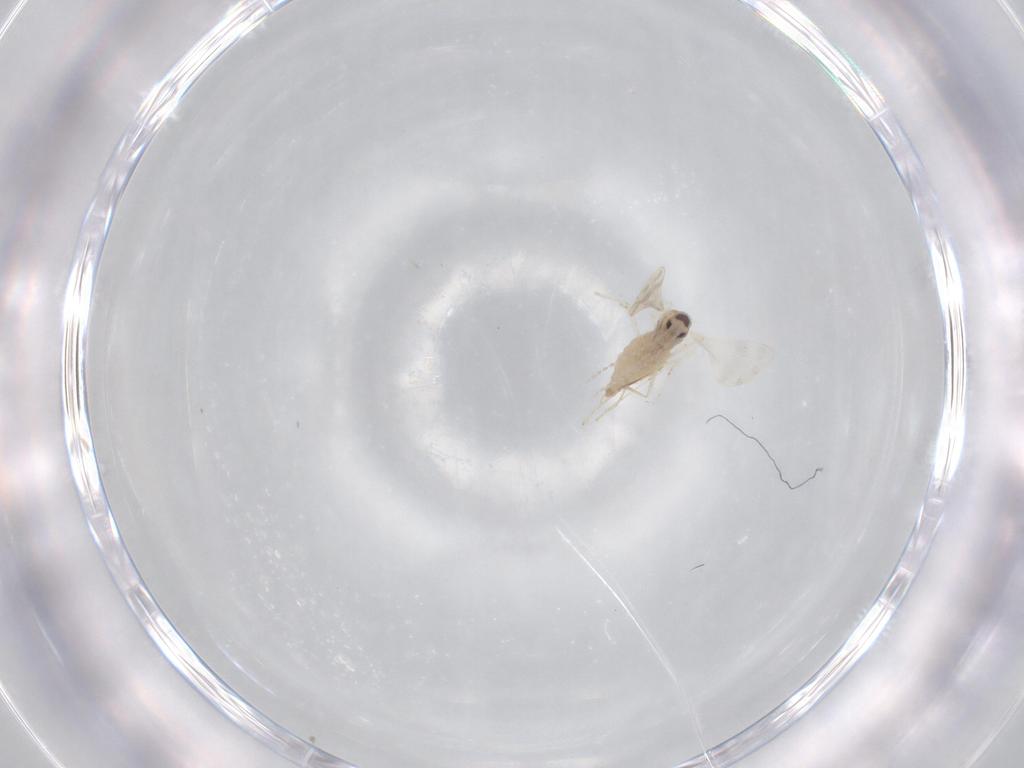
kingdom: Animalia
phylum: Arthropoda
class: Insecta
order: Diptera
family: Cecidomyiidae
